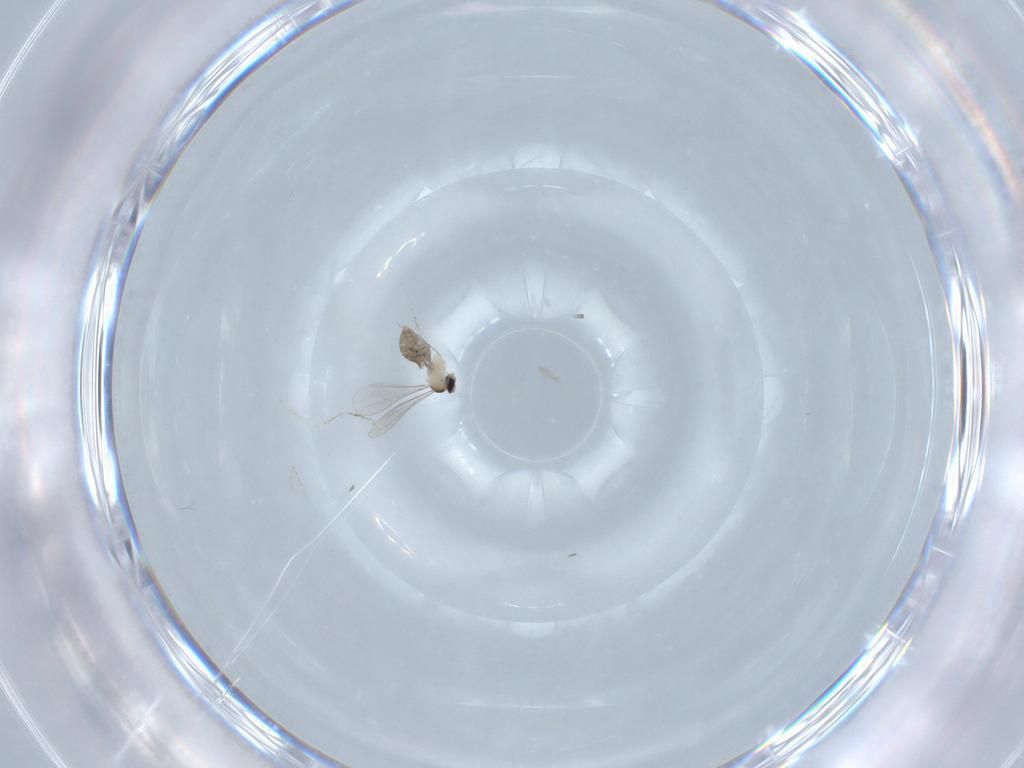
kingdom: Animalia
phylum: Arthropoda
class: Insecta
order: Diptera
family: Cecidomyiidae
